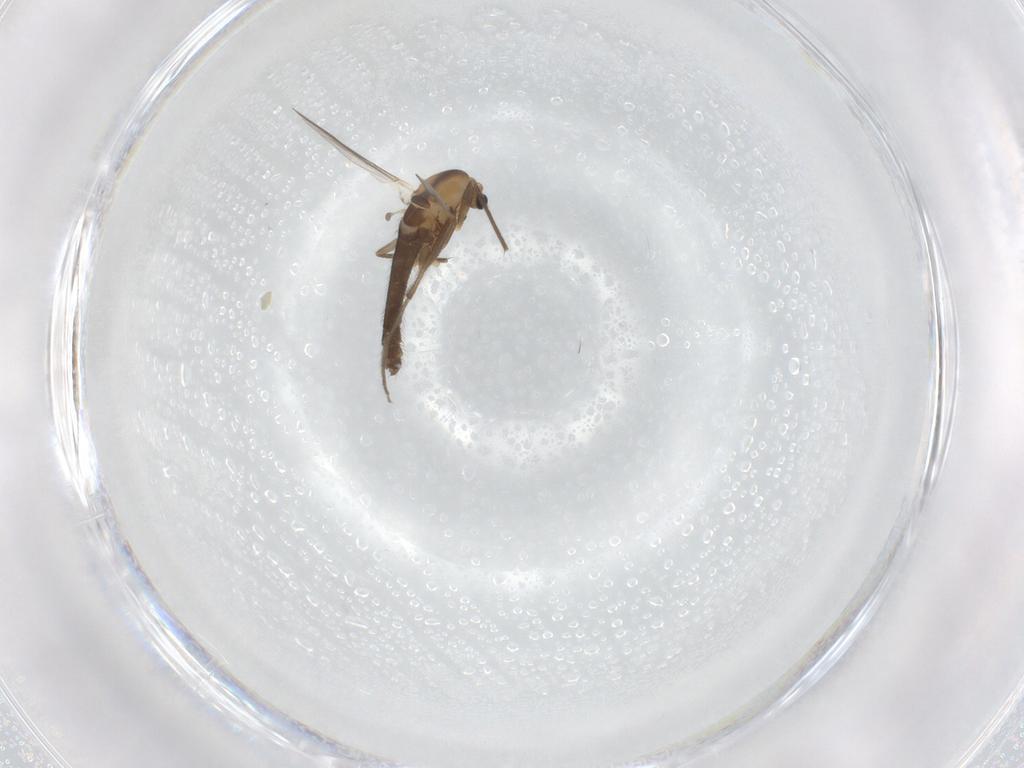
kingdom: Animalia
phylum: Arthropoda
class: Insecta
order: Diptera
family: Chironomidae
